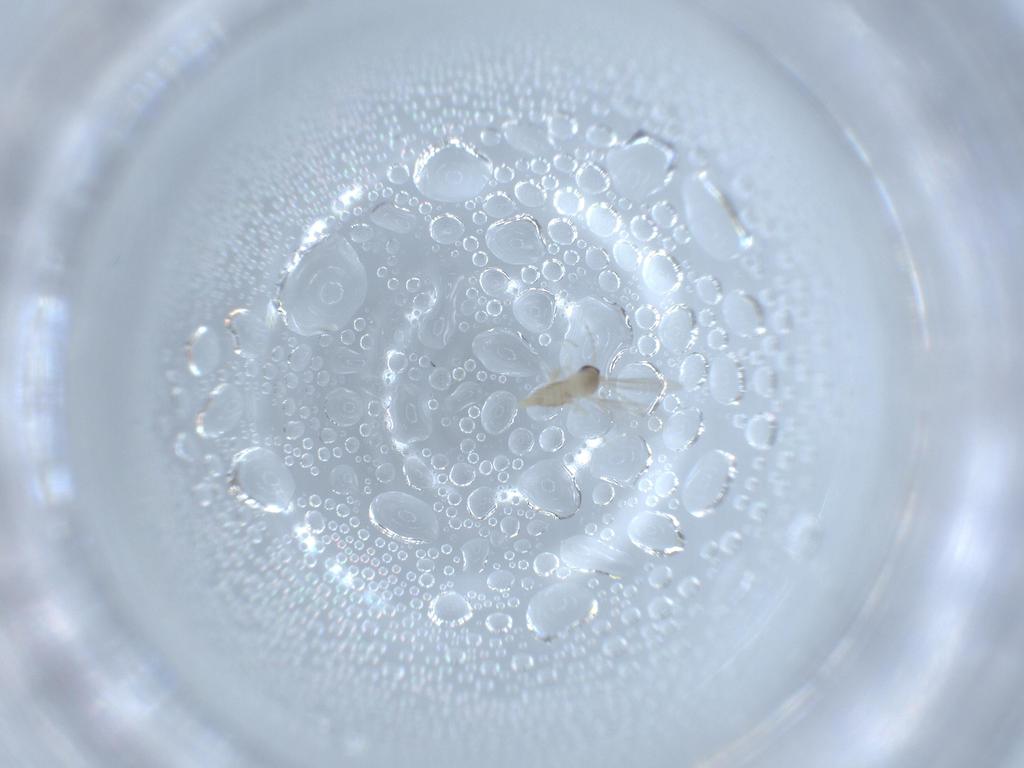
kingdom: Animalia
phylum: Arthropoda
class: Insecta
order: Diptera
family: Cecidomyiidae
